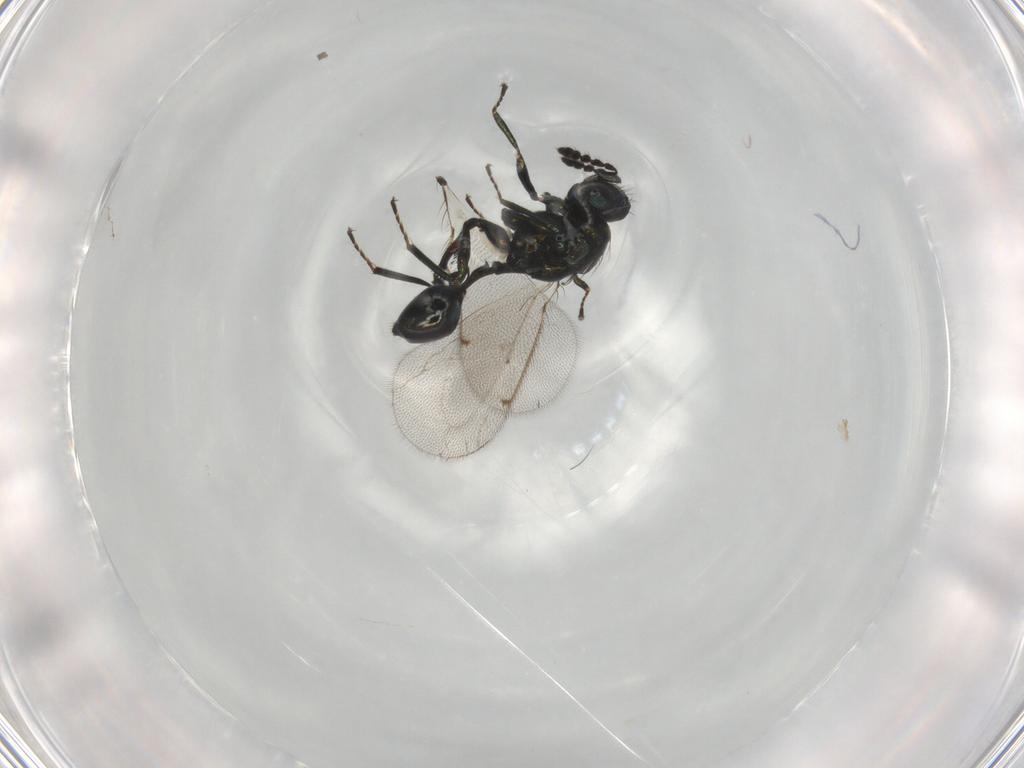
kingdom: Animalia
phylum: Arthropoda
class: Insecta
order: Hymenoptera
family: Eulophidae
